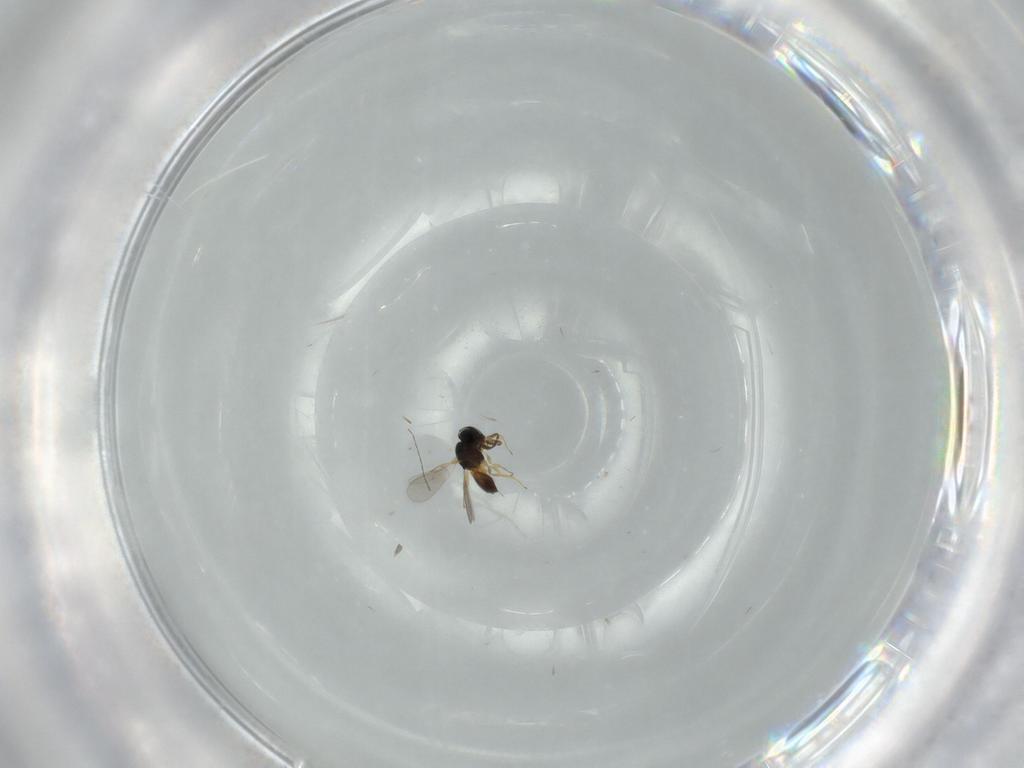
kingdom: Animalia
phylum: Arthropoda
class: Insecta
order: Hymenoptera
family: Scelionidae
